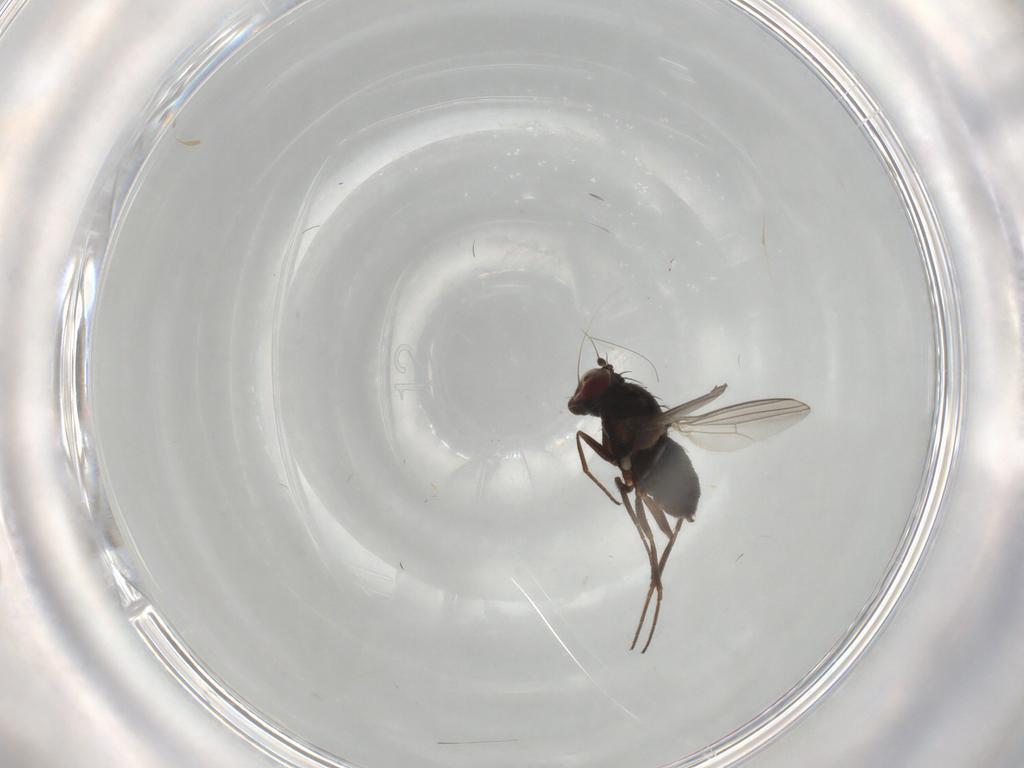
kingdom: Animalia
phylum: Arthropoda
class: Insecta
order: Diptera
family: Dolichopodidae
